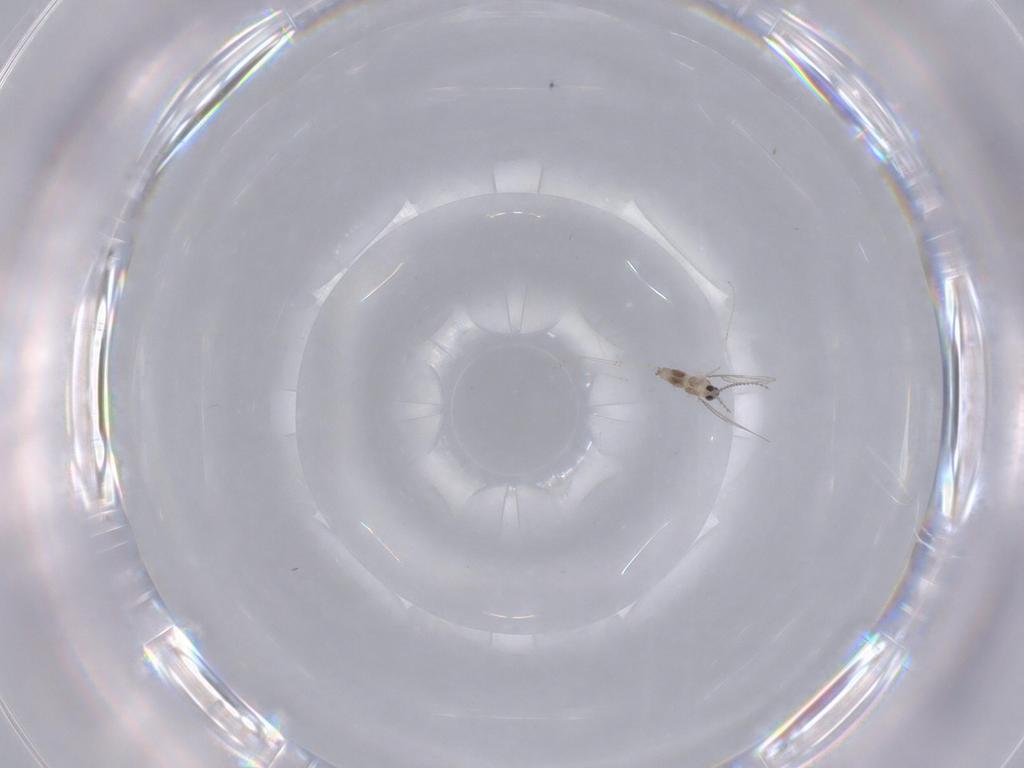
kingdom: Animalia
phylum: Arthropoda
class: Insecta
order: Diptera
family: Cecidomyiidae
